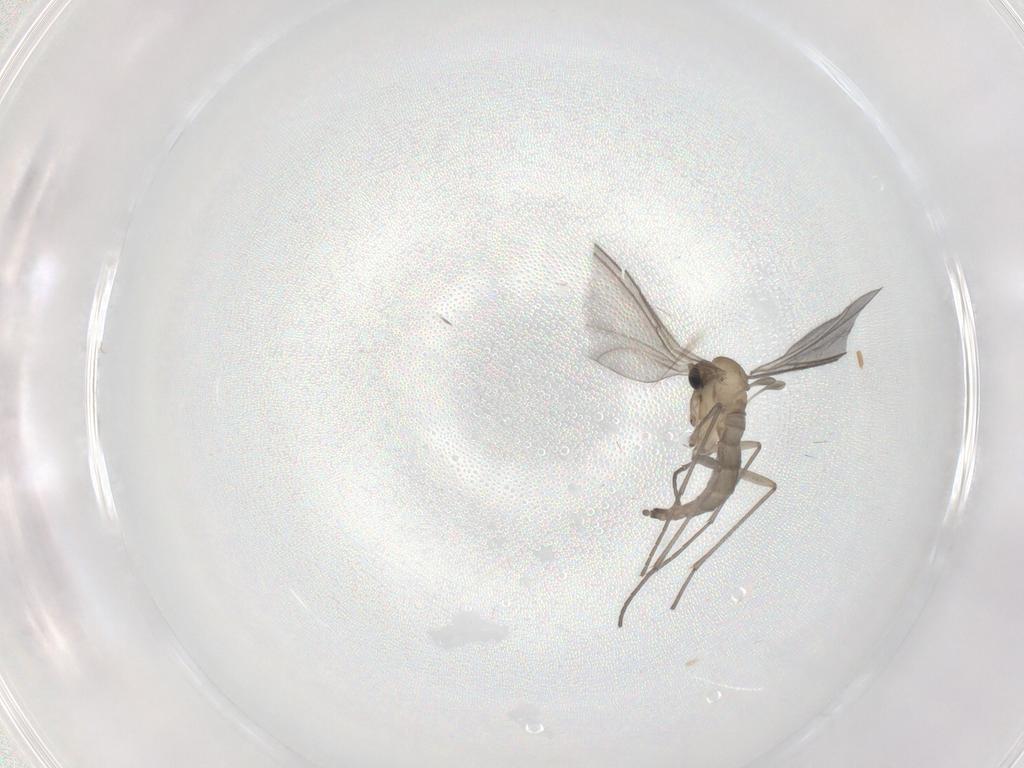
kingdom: Animalia
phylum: Arthropoda
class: Insecta
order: Diptera
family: Sciaridae
